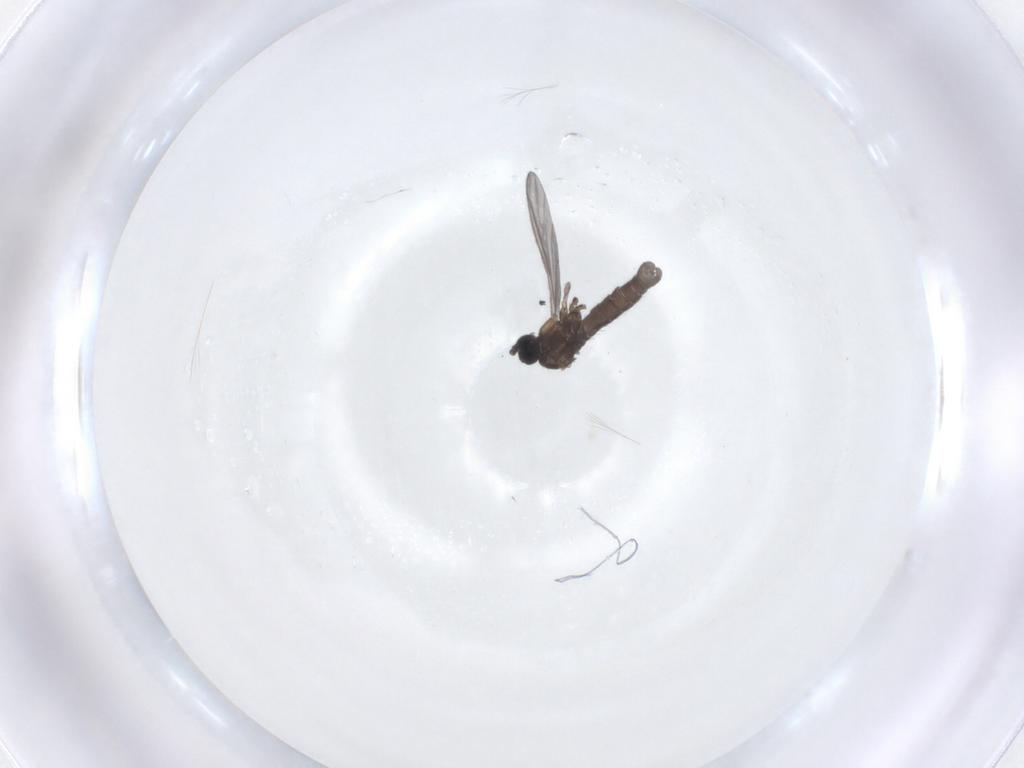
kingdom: Animalia
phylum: Arthropoda
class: Insecta
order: Diptera
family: Sciaridae
